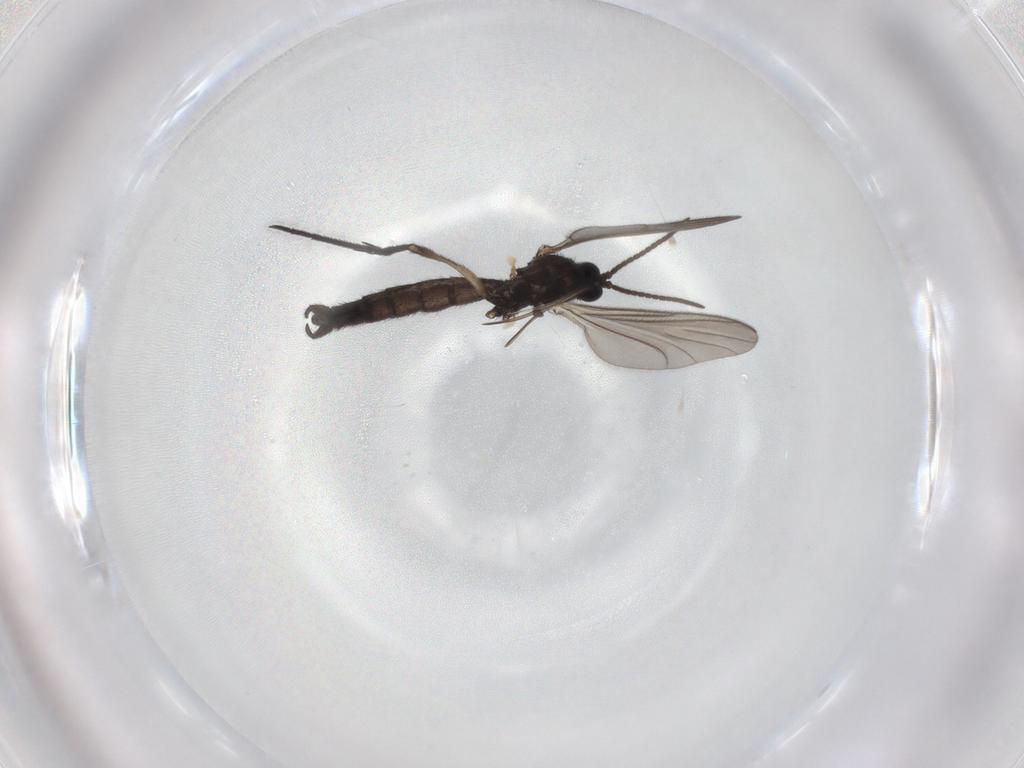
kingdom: Animalia
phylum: Arthropoda
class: Insecta
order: Diptera
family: Keroplatidae
